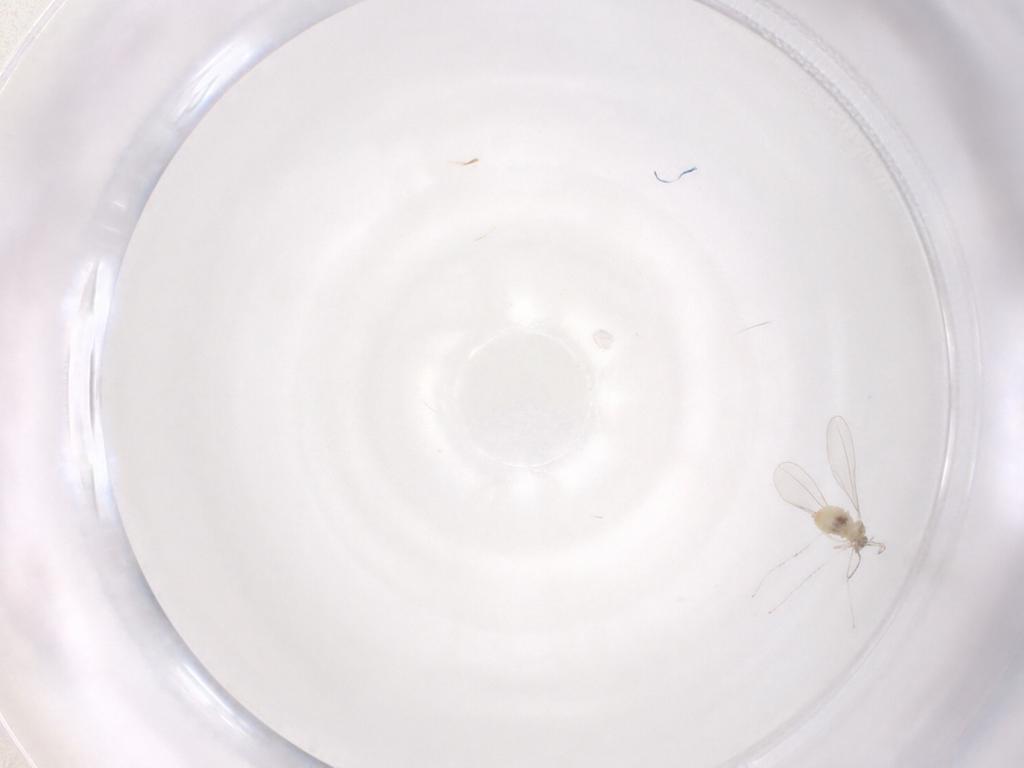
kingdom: Animalia
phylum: Arthropoda
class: Insecta
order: Diptera
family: Cecidomyiidae
